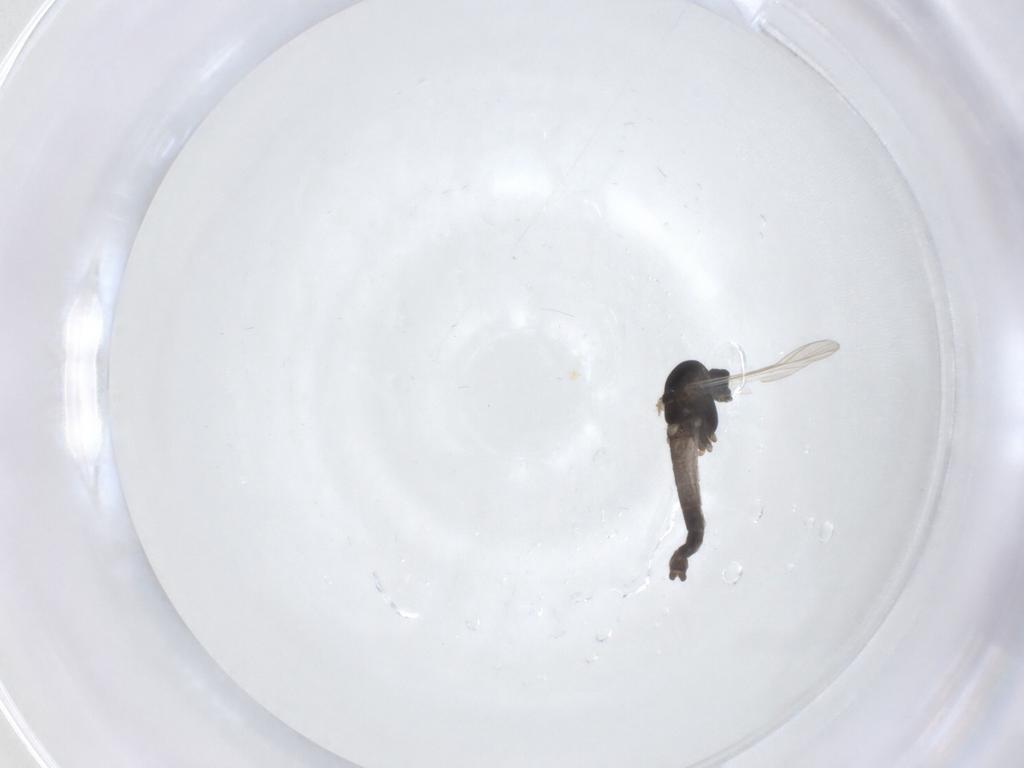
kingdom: Animalia
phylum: Arthropoda
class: Insecta
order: Diptera
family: Chironomidae
